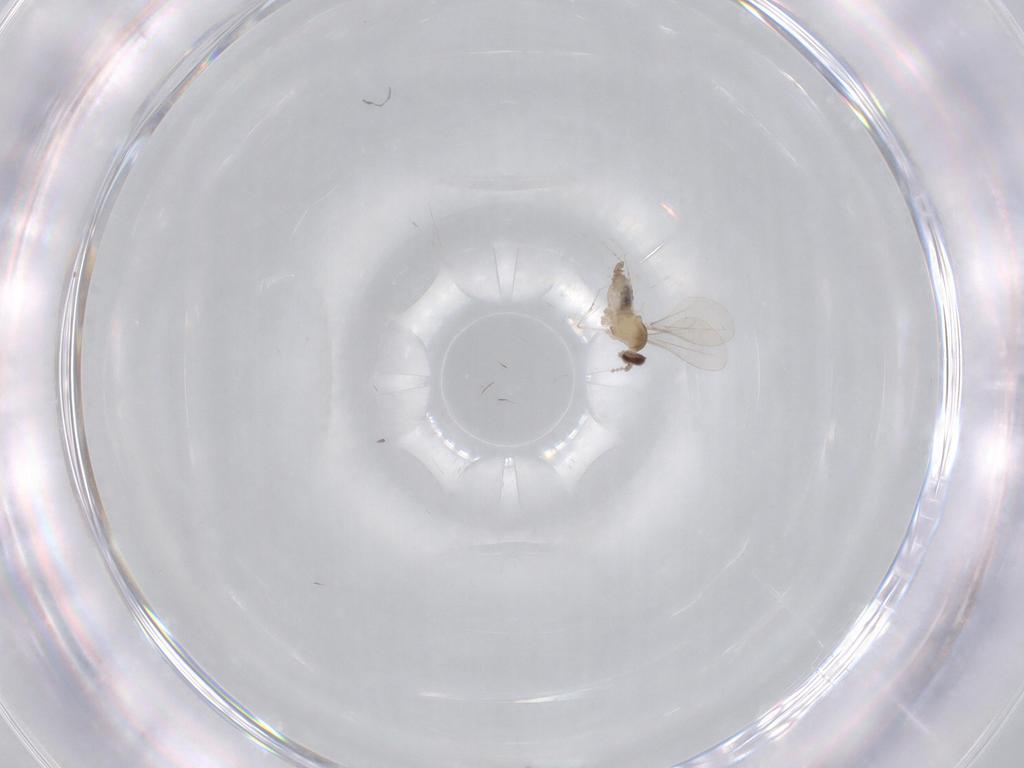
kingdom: Animalia
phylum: Arthropoda
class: Insecta
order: Diptera
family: Cecidomyiidae
